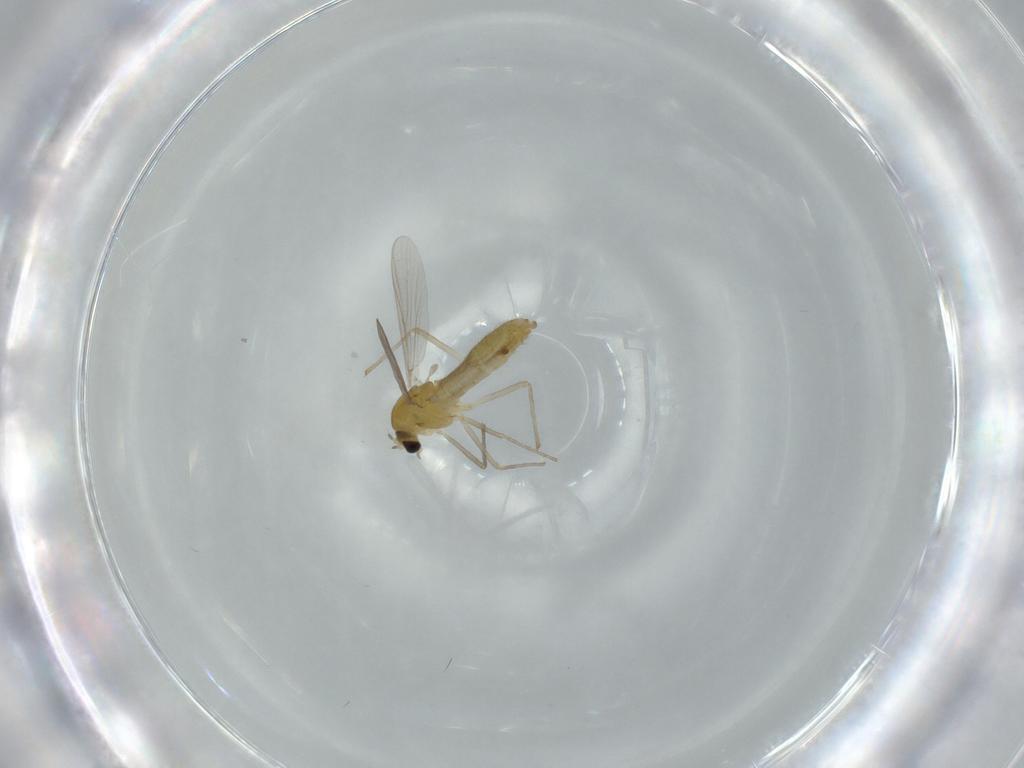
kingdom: Animalia
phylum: Arthropoda
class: Insecta
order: Diptera
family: Chironomidae
